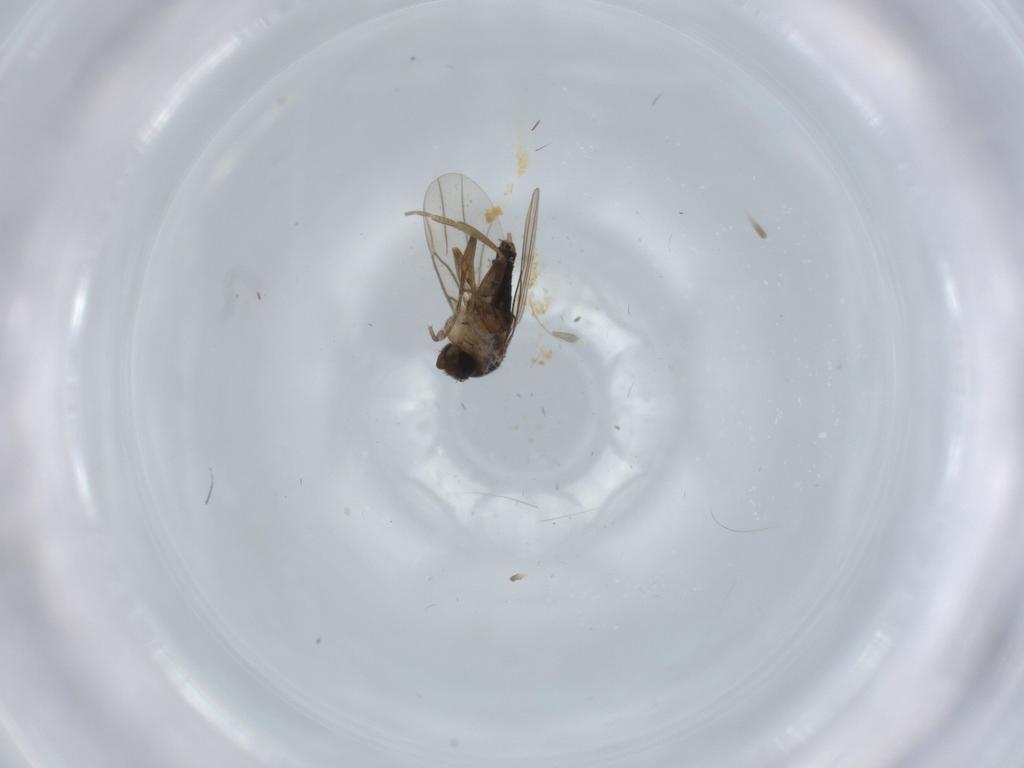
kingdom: Animalia
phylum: Arthropoda
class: Insecta
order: Diptera
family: Phoridae
